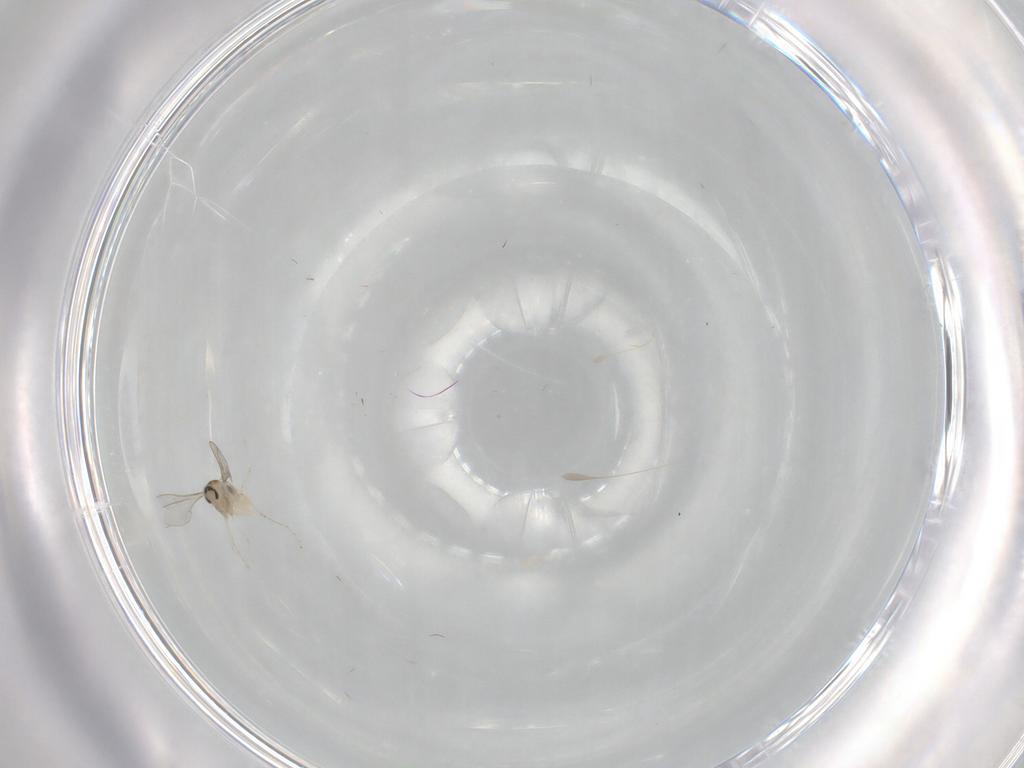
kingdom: Animalia
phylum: Arthropoda
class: Insecta
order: Diptera
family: Cecidomyiidae
